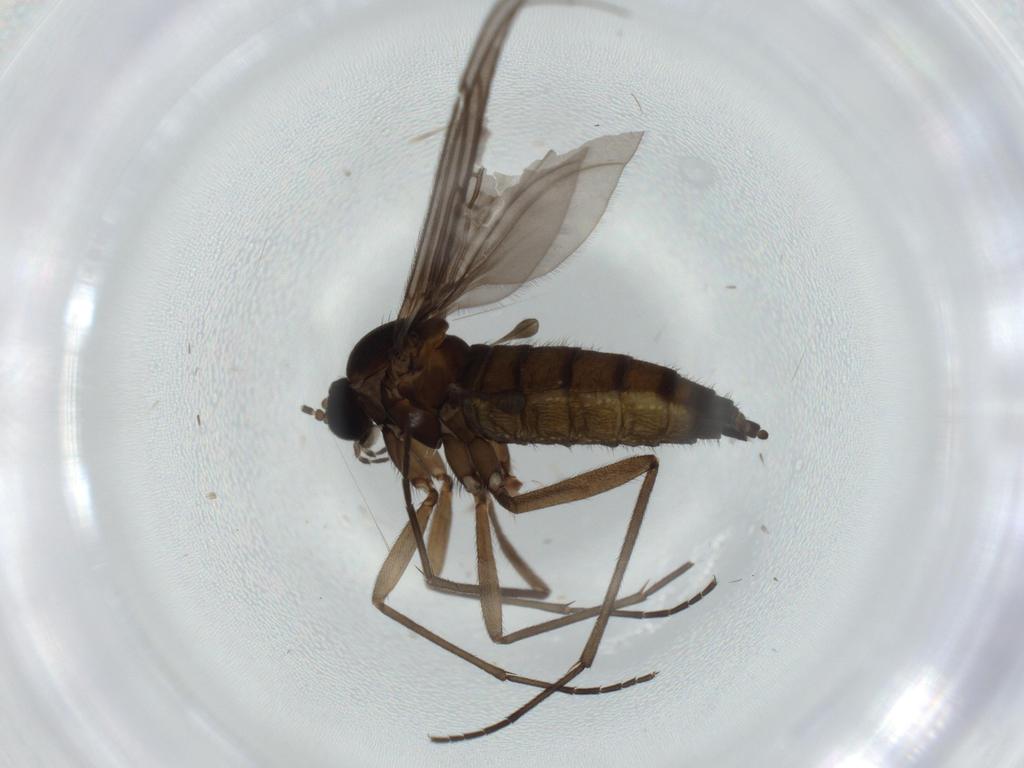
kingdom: Animalia
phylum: Arthropoda
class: Insecta
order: Diptera
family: Sciaridae
